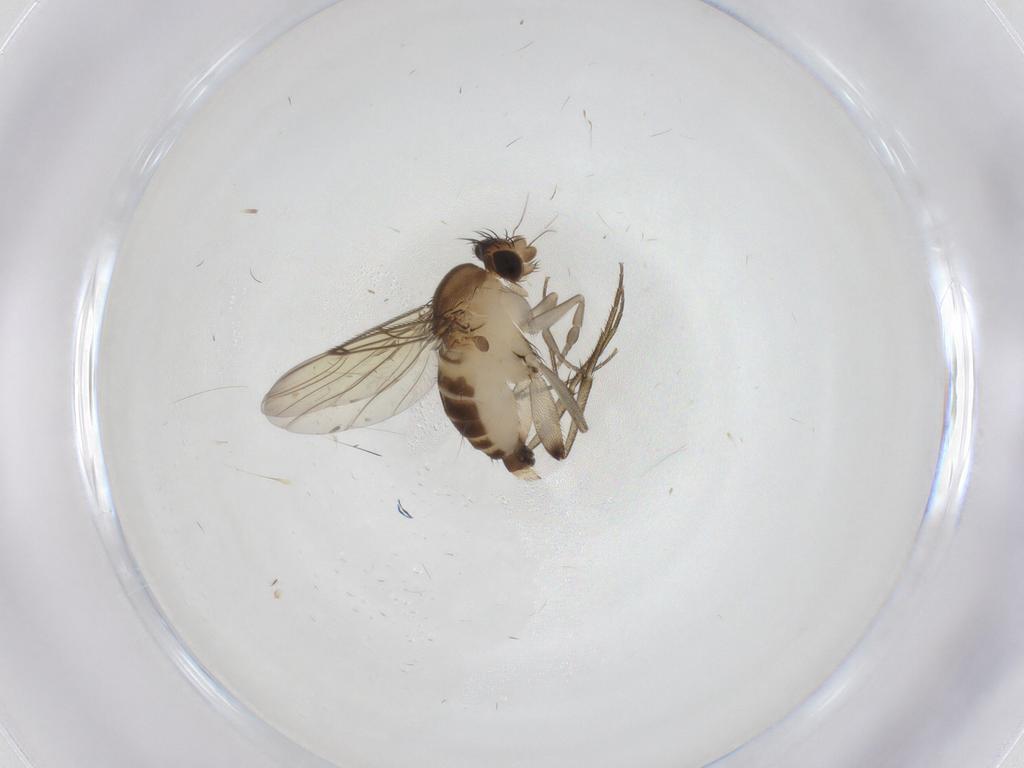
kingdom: Animalia
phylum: Arthropoda
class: Insecta
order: Diptera
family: Phoridae
